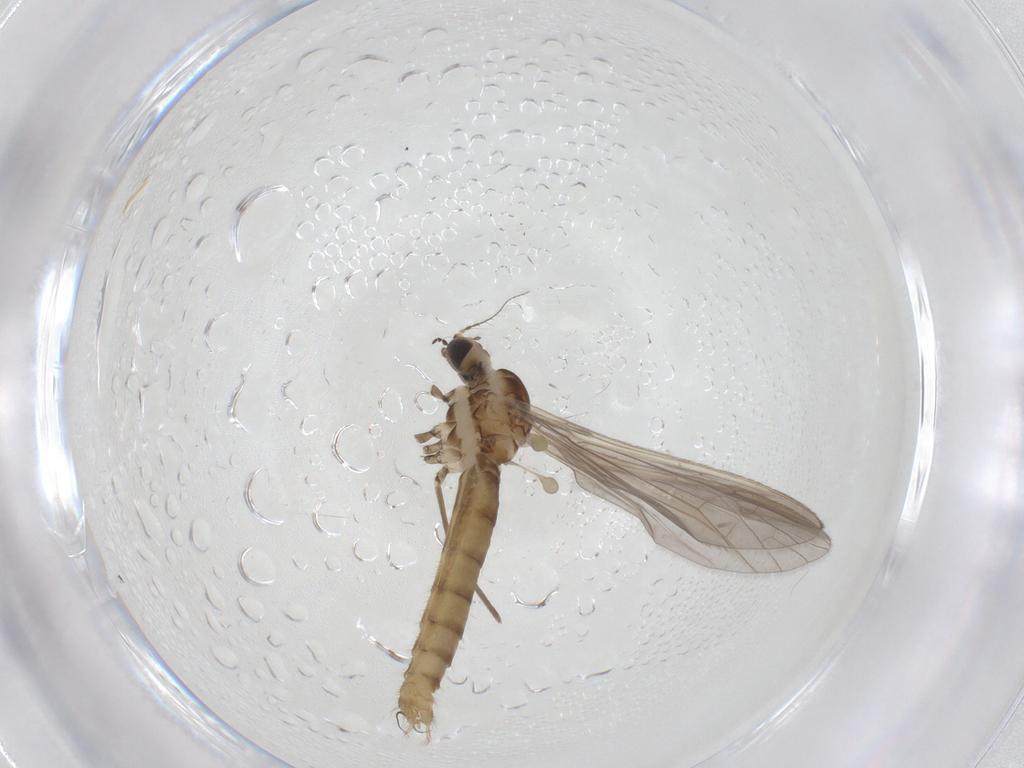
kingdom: Animalia
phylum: Arthropoda
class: Insecta
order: Diptera
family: Limoniidae
